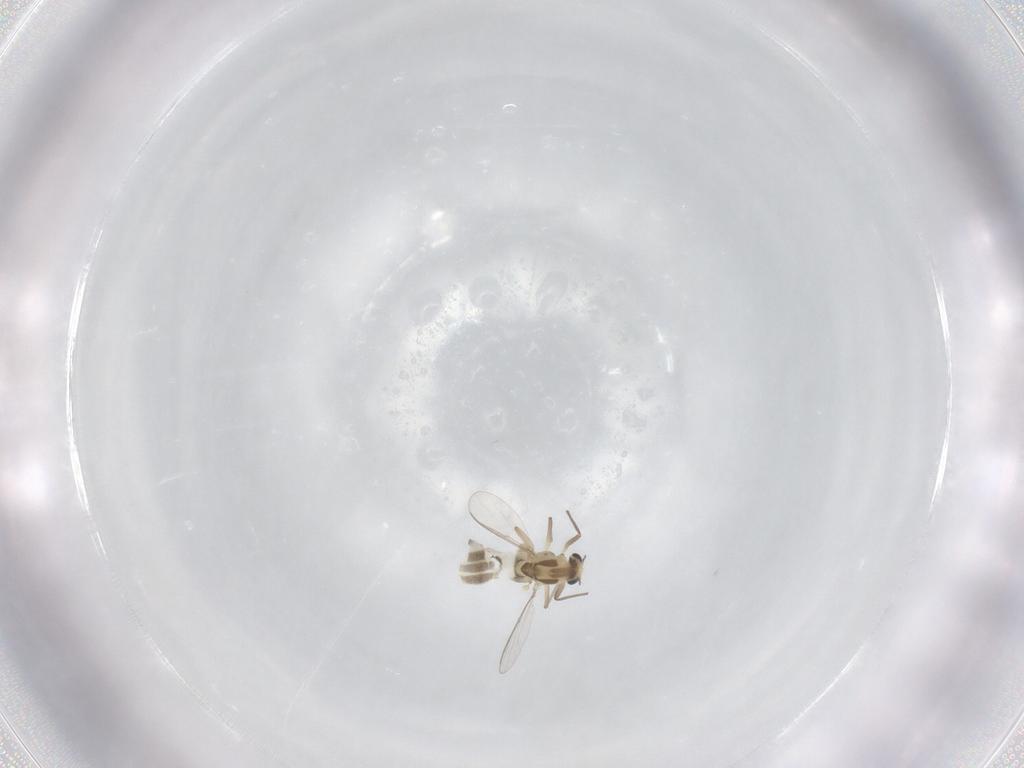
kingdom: Animalia
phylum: Arthropoda
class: Insecta
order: Diptera
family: Chironomidae
